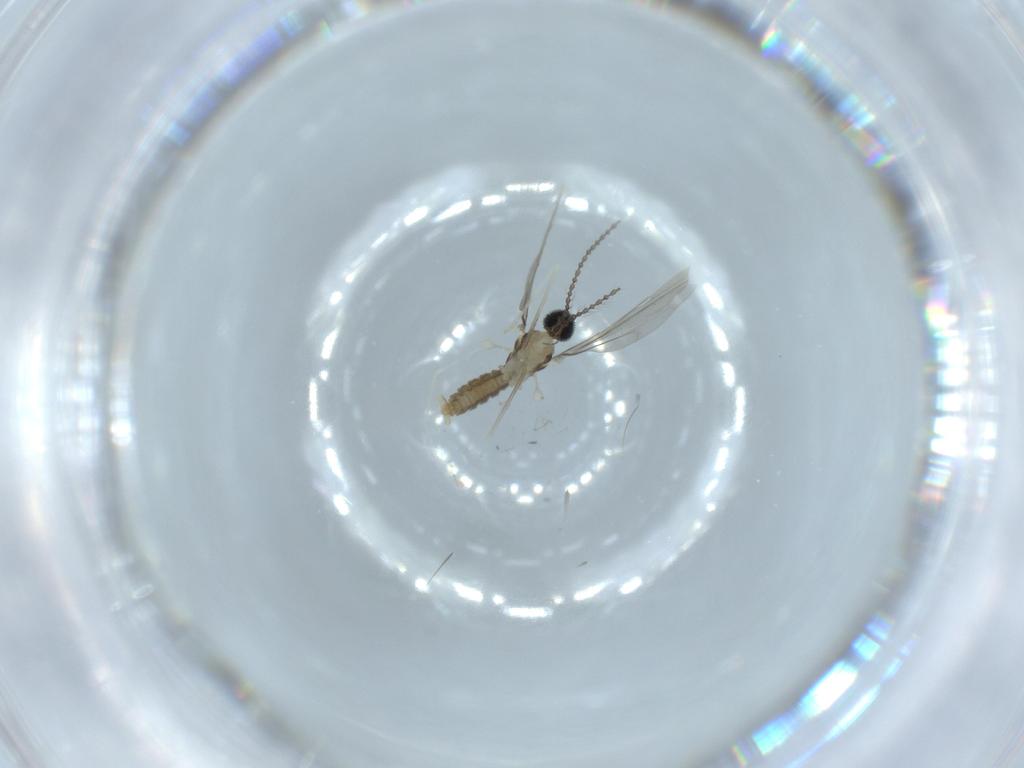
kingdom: Animalia
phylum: Arthropoda
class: Insecta
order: Diptera
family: Cecidomyiidae
